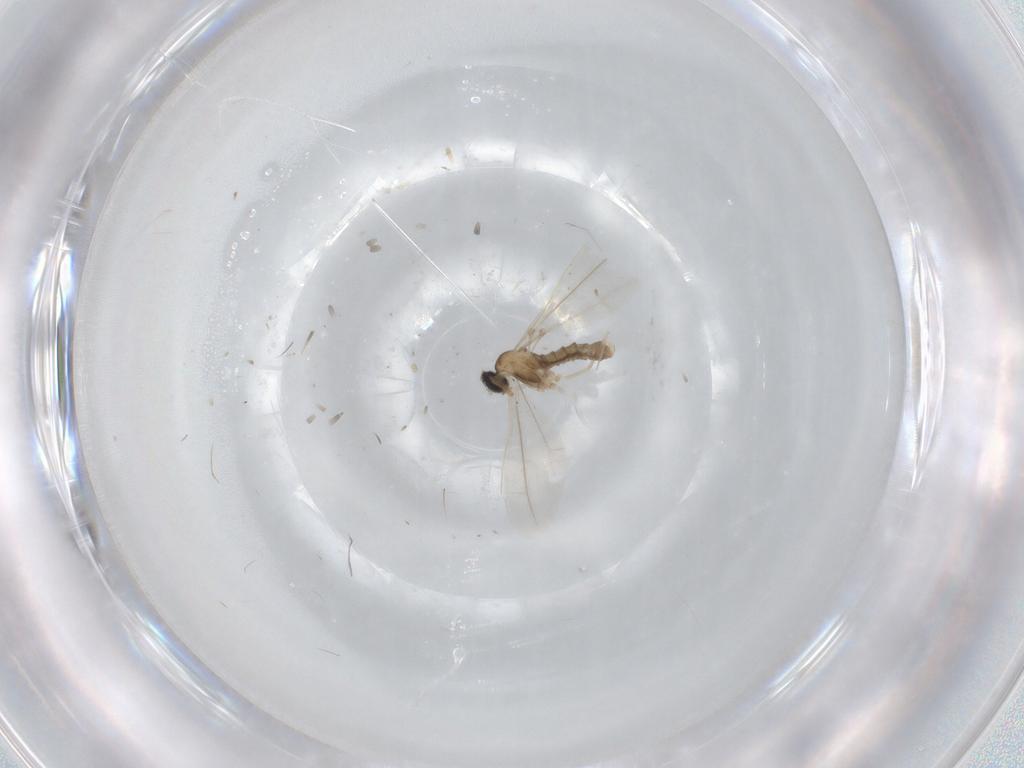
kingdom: Animalia
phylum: Arthropoda
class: Insecta
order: Diptera
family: Cecidomyiidae
